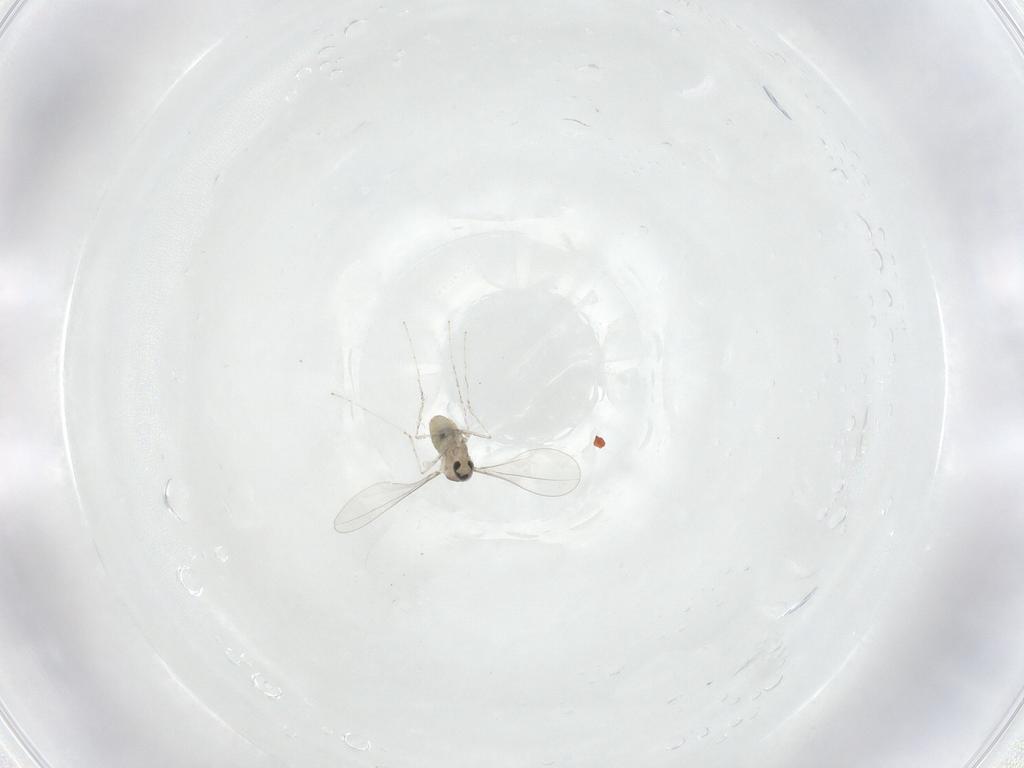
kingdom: Animalia
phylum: Arthropoda
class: Insecta
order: Diptera
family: Cecidomyiidae
